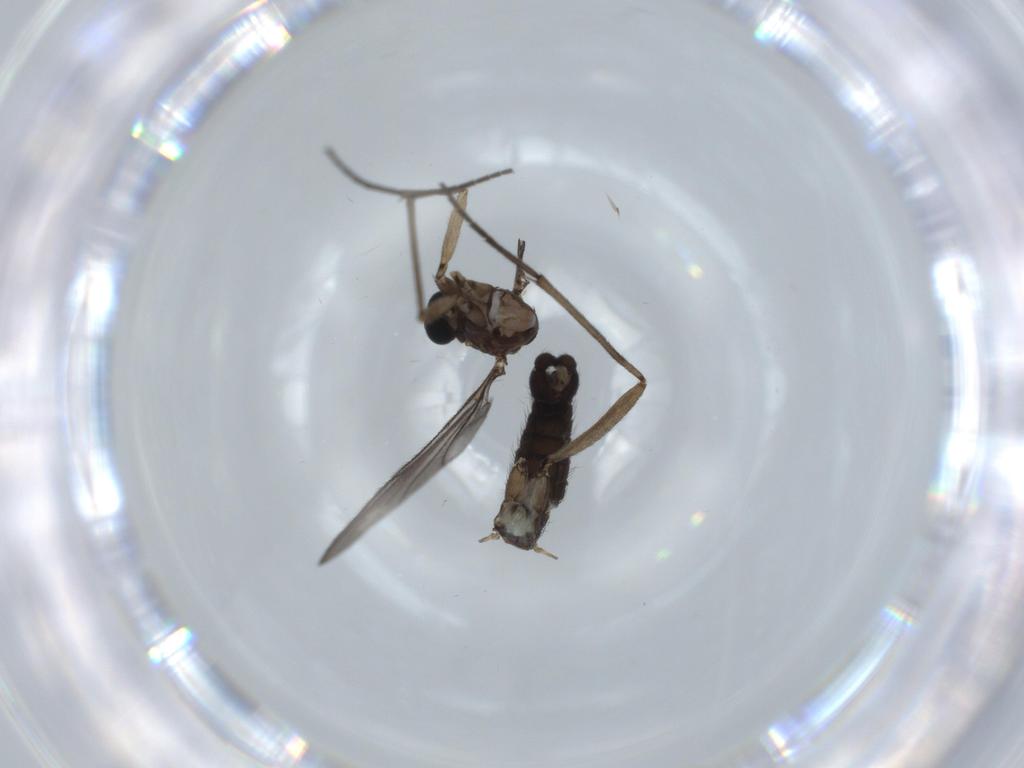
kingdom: Animalia
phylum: Arthropoda
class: Insecta
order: Diptera
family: Sciaridae
